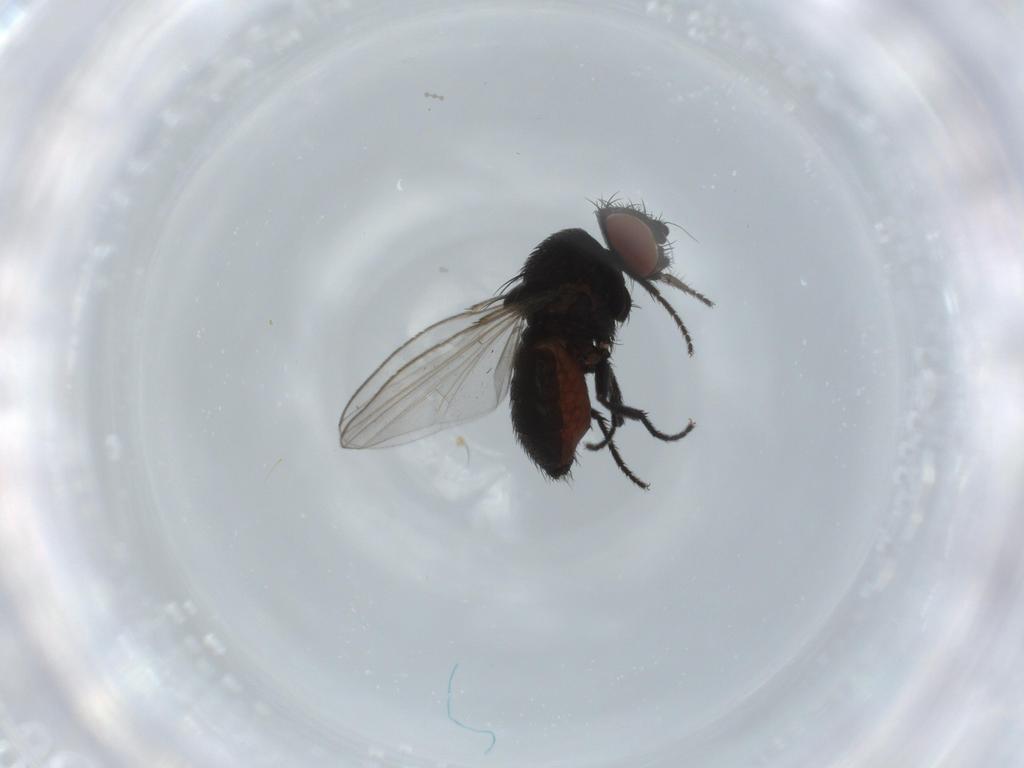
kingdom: Animalia
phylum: Arthropoda
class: Insecta
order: Diptera
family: Milichiidae
